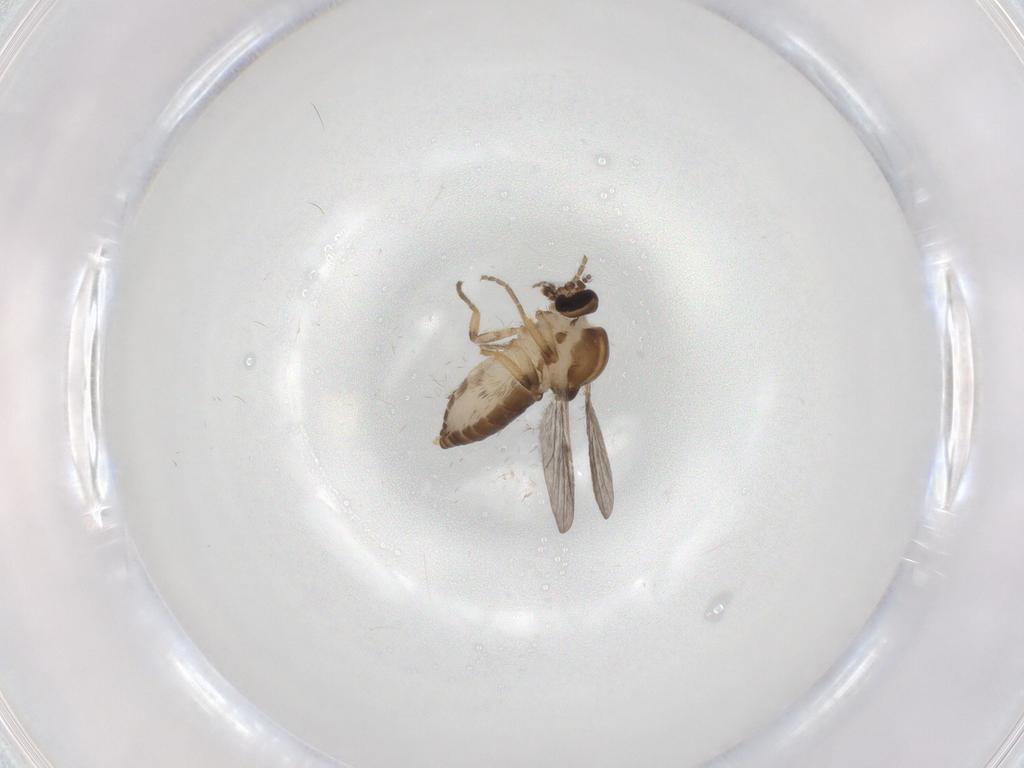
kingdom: Animalia
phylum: Arthropoda
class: Insecta
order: Diptera
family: Ceratopogonidae
